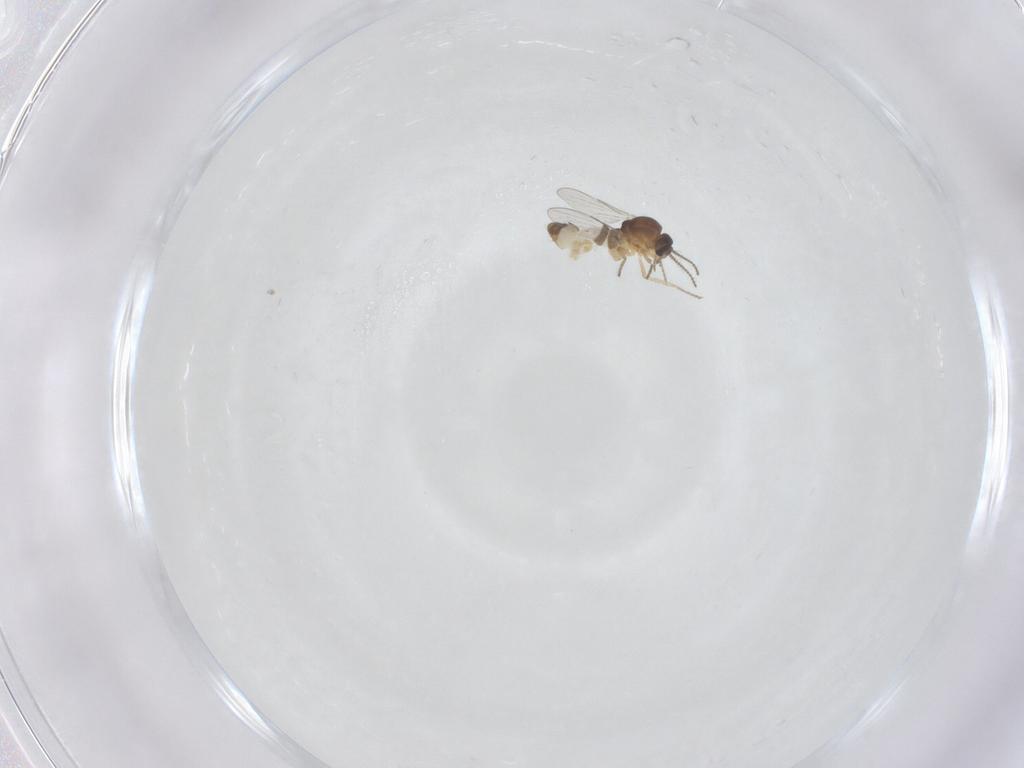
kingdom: Animalia
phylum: Arthropoda
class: Insecta
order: Diptera
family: Ceratopogonidae
